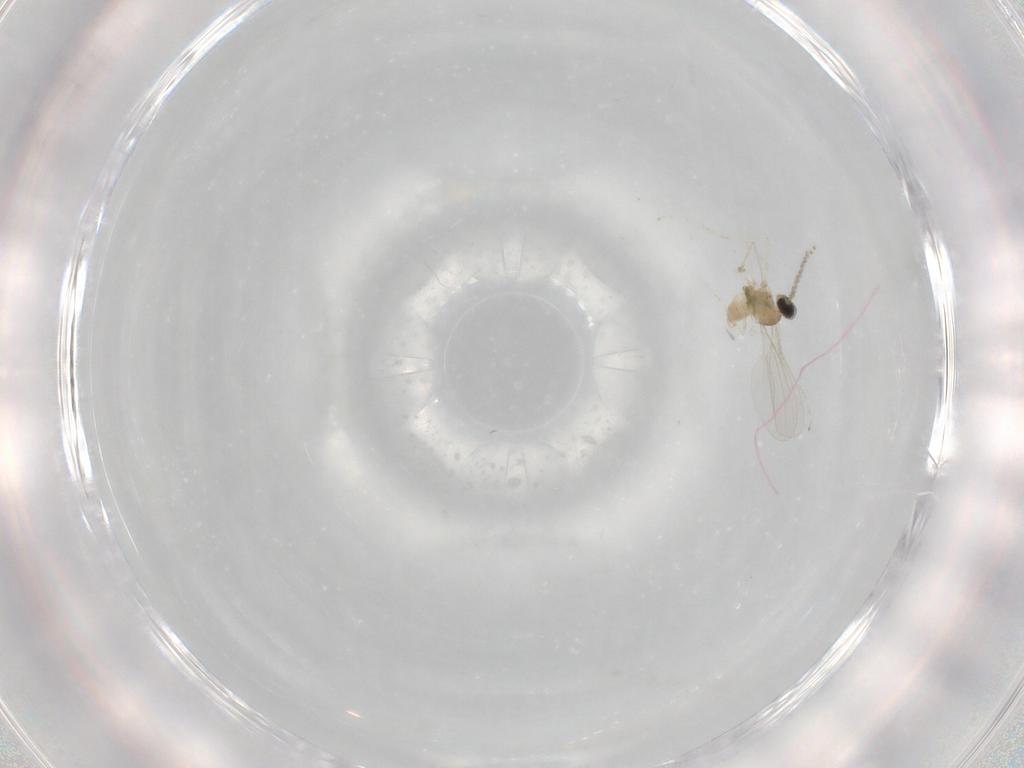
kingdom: Animalia
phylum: Arthropoda
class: Insecta
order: Diptera
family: Cecidomyiidae
